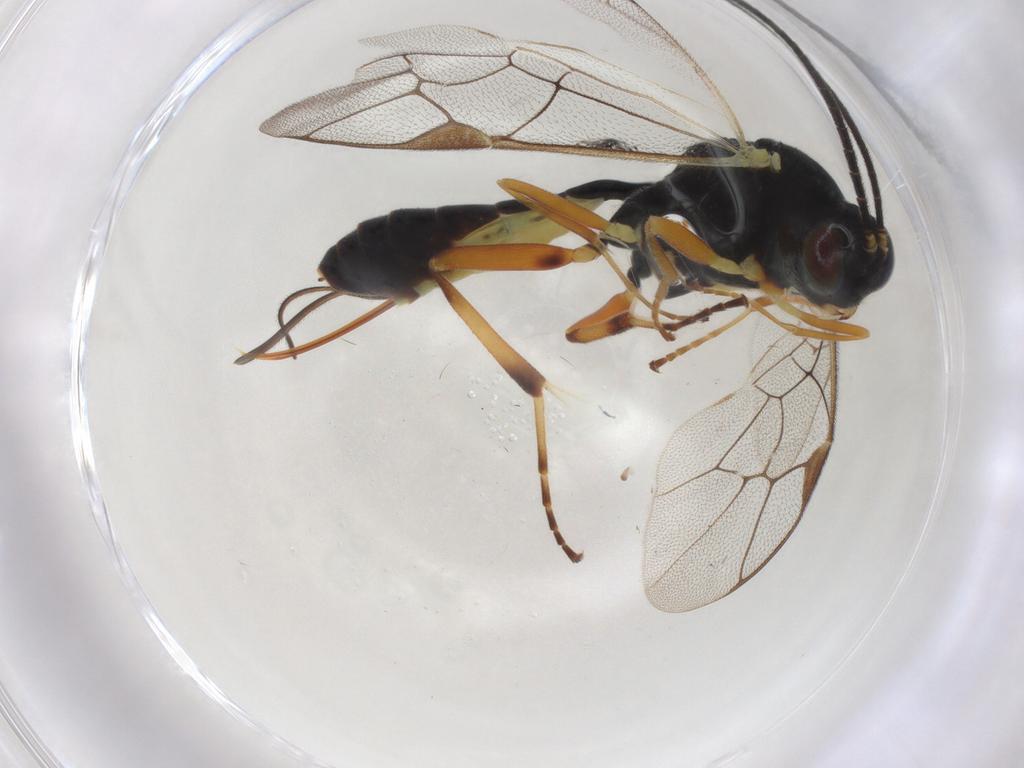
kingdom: Animalia
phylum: Arthropoda
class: Insecta
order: Hymenoptera
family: Ichneumonidae
